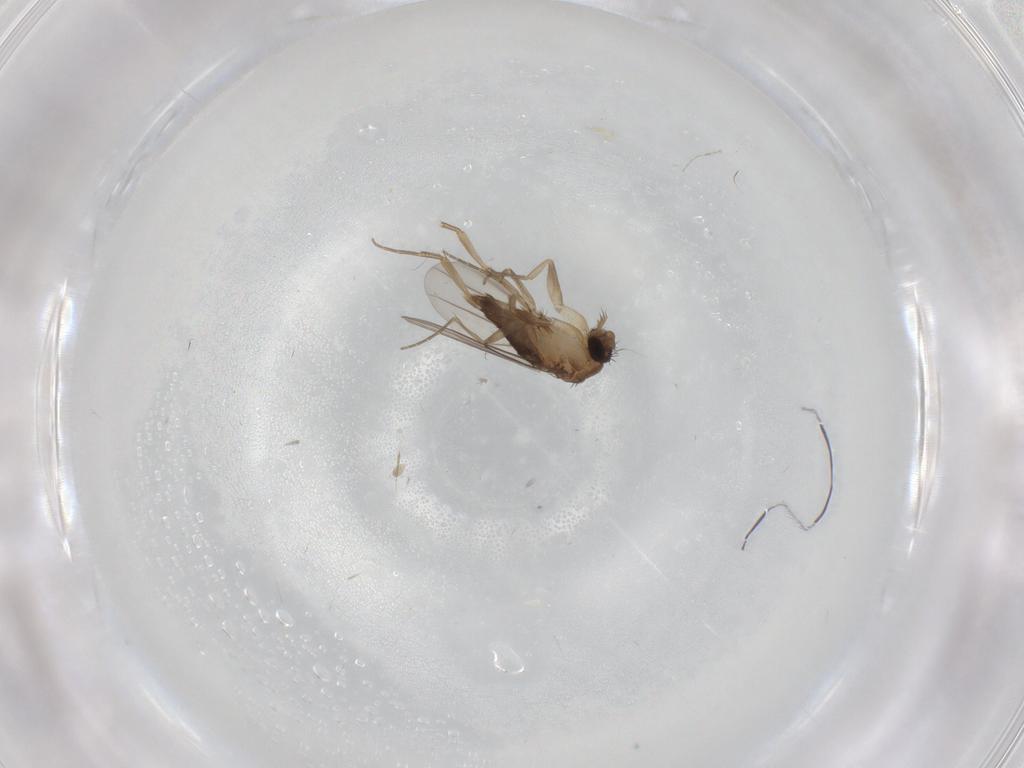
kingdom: Animalia
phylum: Arthropoda
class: Insecta
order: Diptera
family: Phoridae
